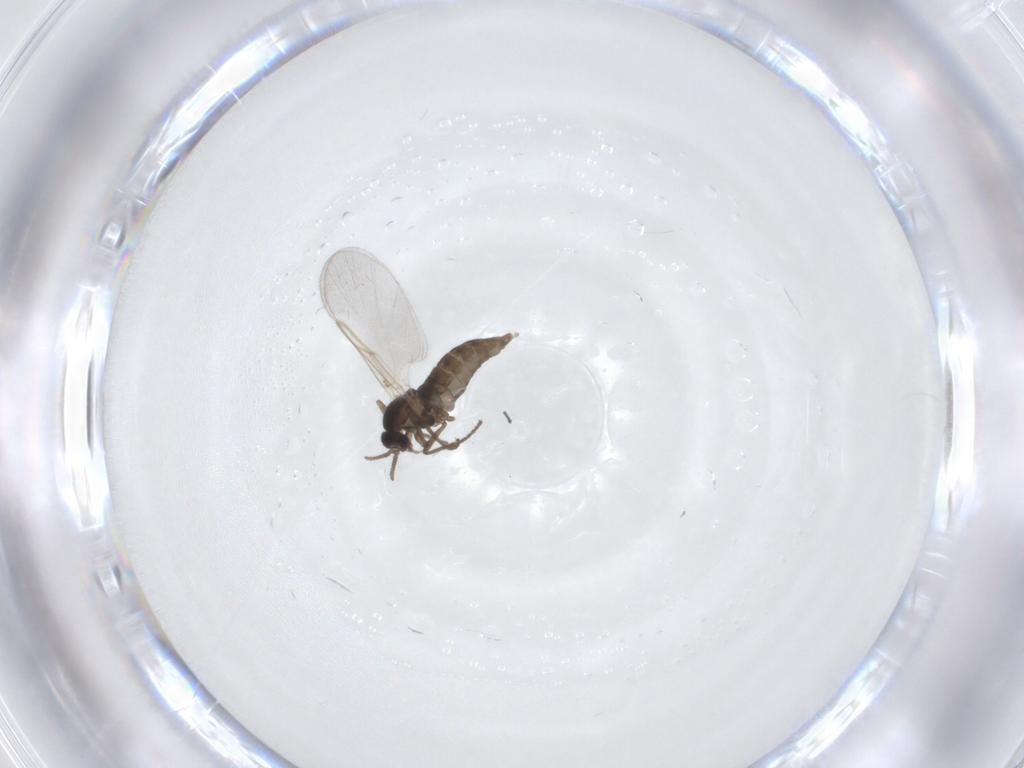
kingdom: Animalia
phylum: Arthropoda
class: Insecta
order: Diptera
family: Cecidomyiidae
